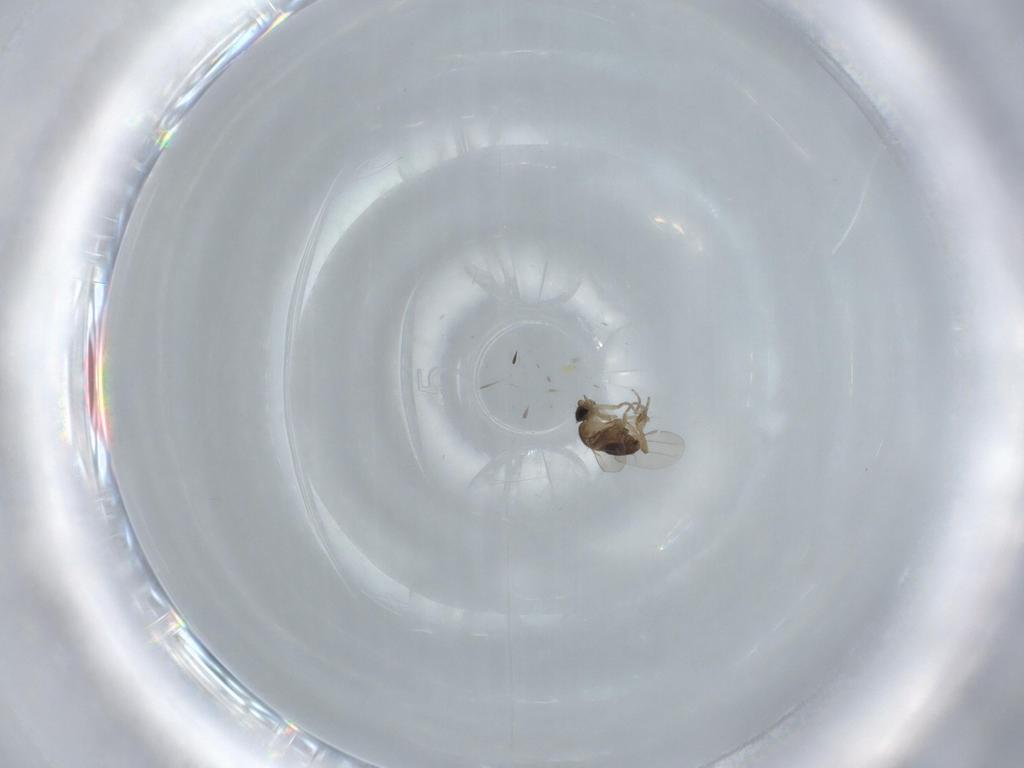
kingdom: Animalia
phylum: Arthropoda
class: Insecta
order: Diptera
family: Phoridae
